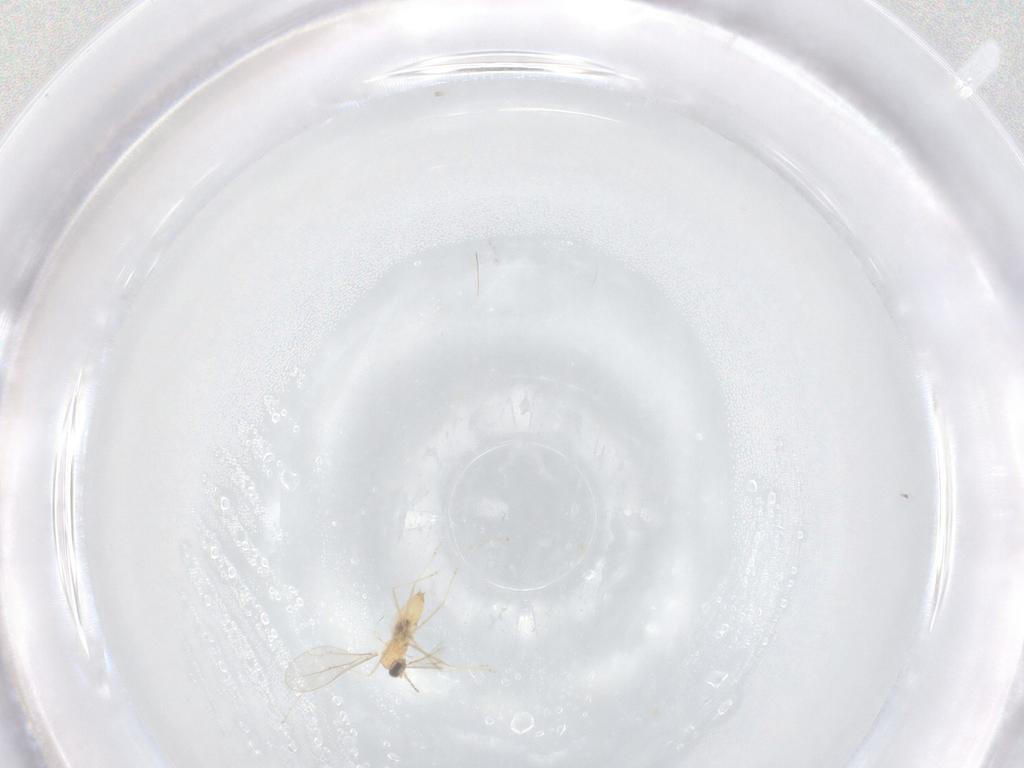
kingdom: Animalia
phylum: Arthropoda
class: Insecta
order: Diptera
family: Cecidomyiidae
